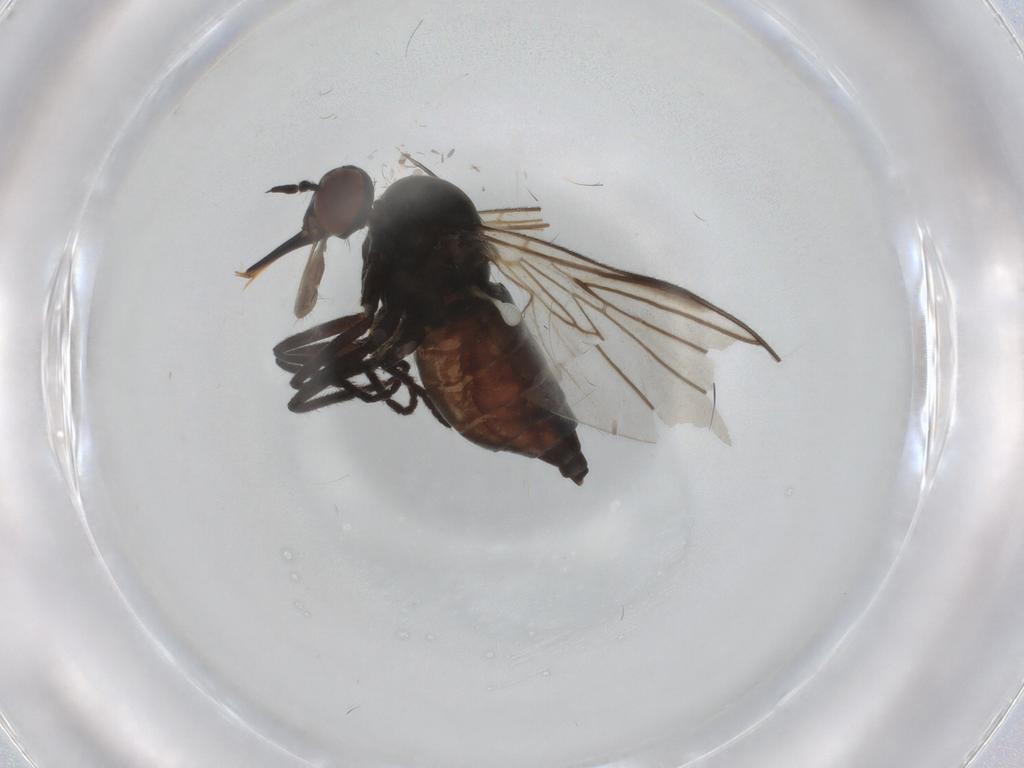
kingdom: Animalia
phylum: Arthropoda
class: Insecta
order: Diptera
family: Empididae
